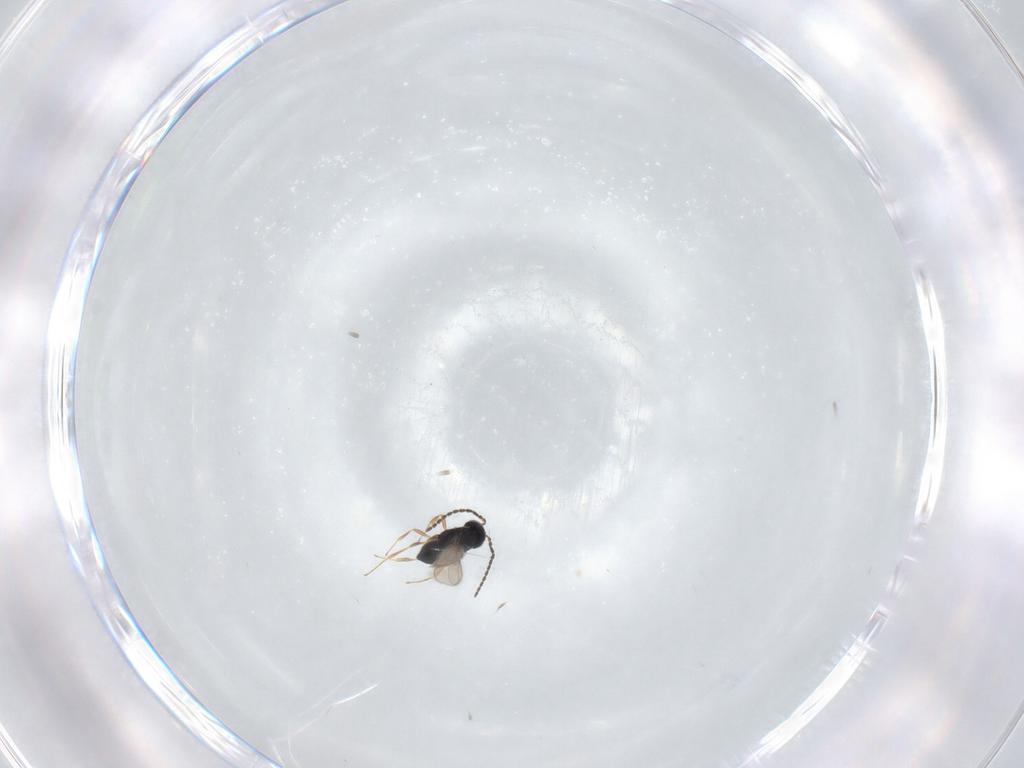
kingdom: Animalia
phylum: Arthropoda
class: Insecta
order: Hymenoptera
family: Scelionidae
